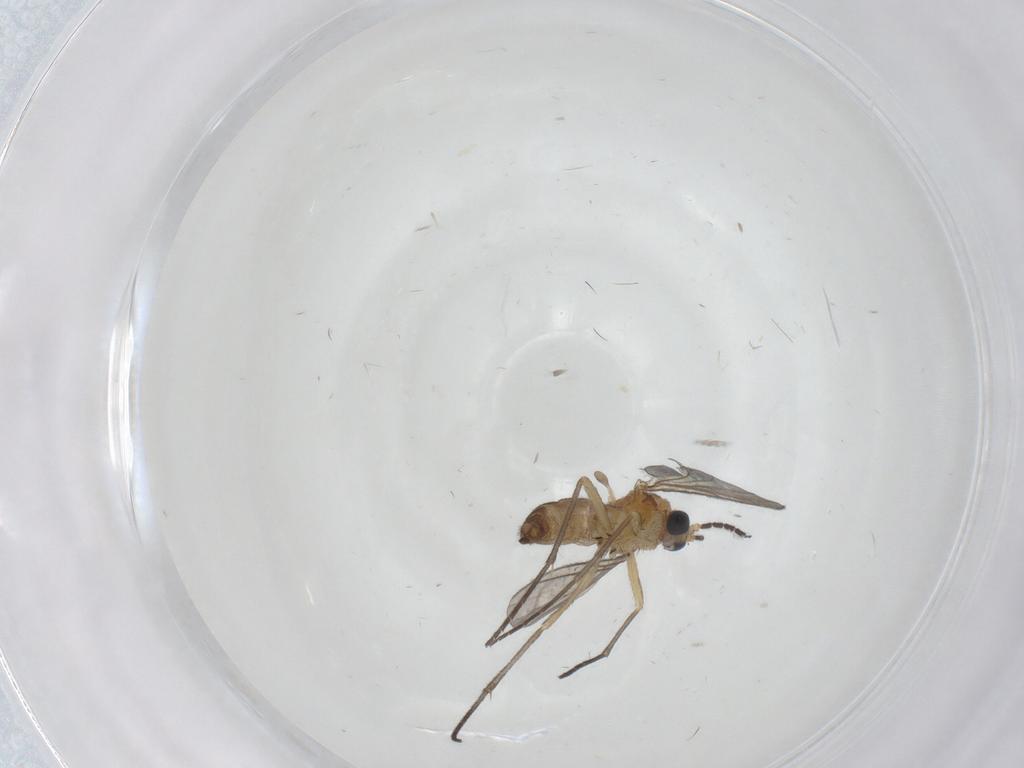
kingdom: Animalia
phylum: Arthropoda
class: Insecta
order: Diptera
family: Sciaridae
